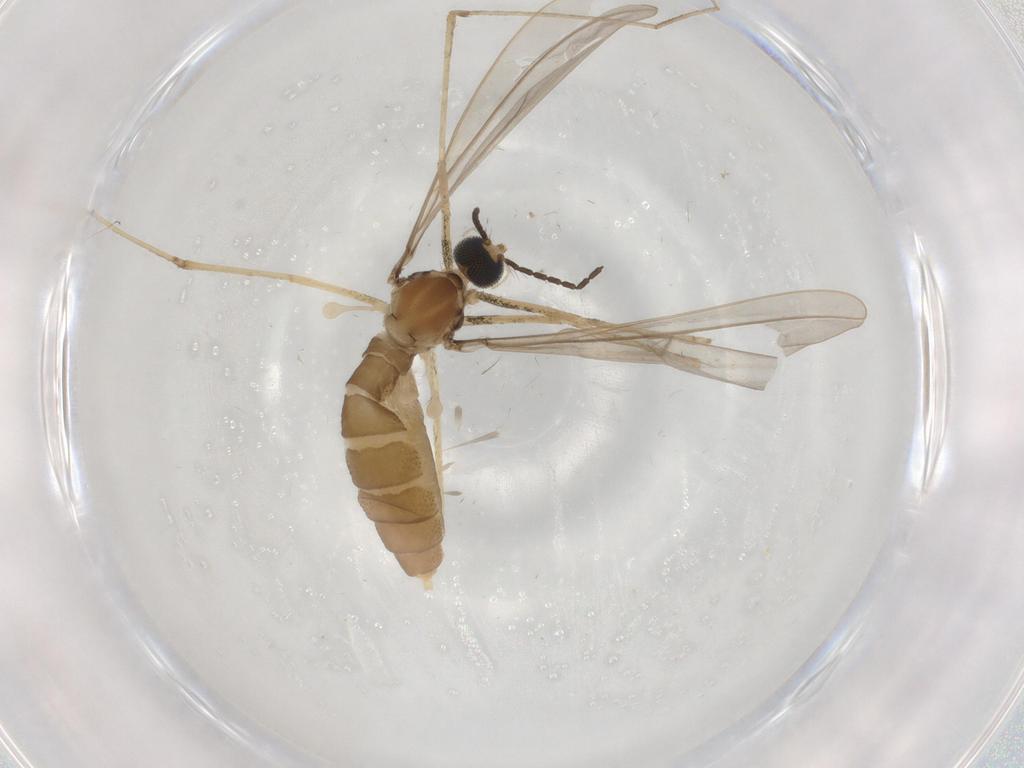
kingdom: Animalia
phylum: Arthropoda
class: Insecta
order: Diptera
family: Cecidomyiidae
